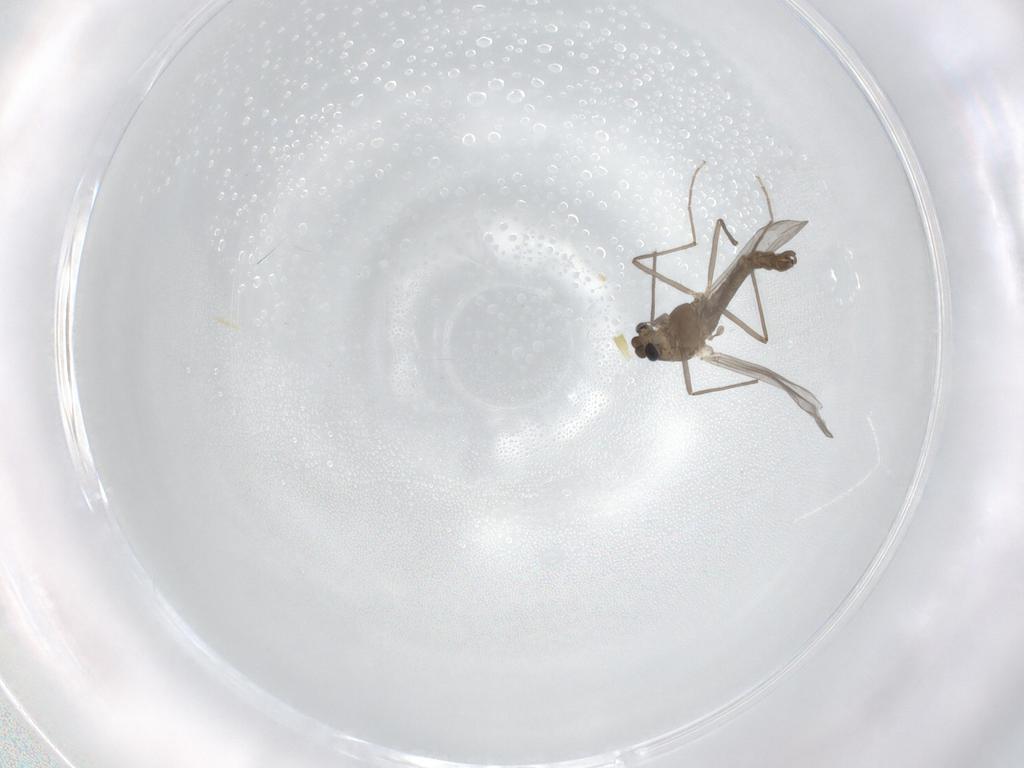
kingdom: Animalia
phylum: Arthropoda
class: Insecta
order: Diptera
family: Chironomidae
